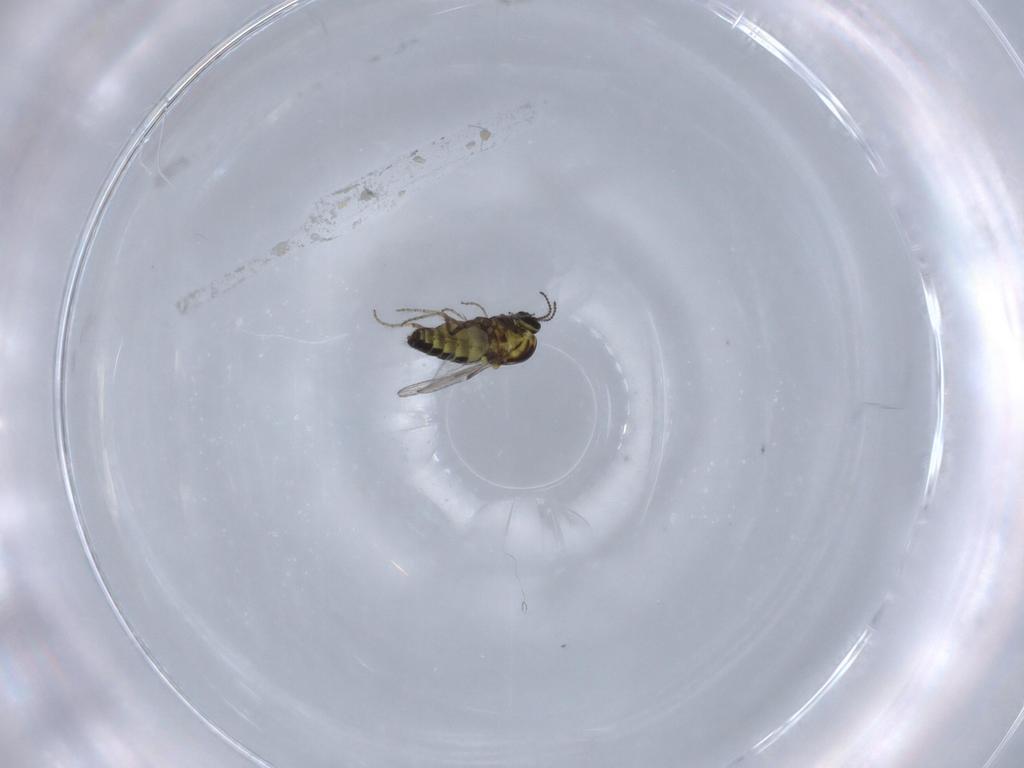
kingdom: Animalia
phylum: Arthropoda
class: Insecta
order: Diptera
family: Ceratopogonidae
